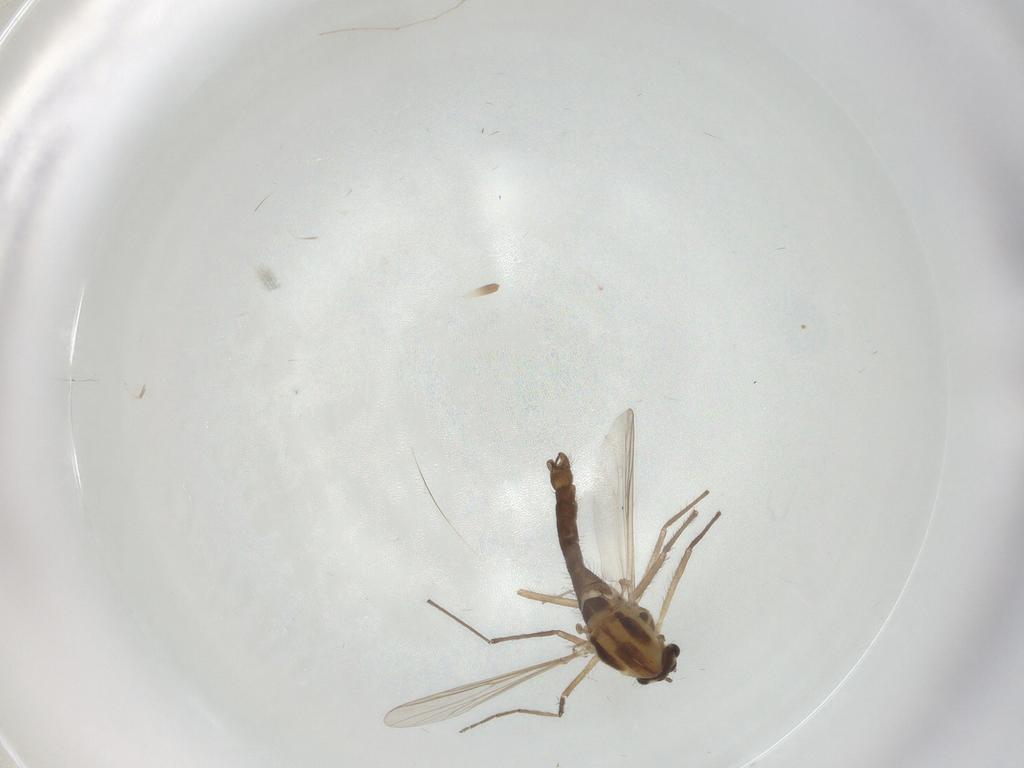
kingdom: Animalia
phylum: Arthropoda
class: Insecta
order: Diptera
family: Chironomidae
